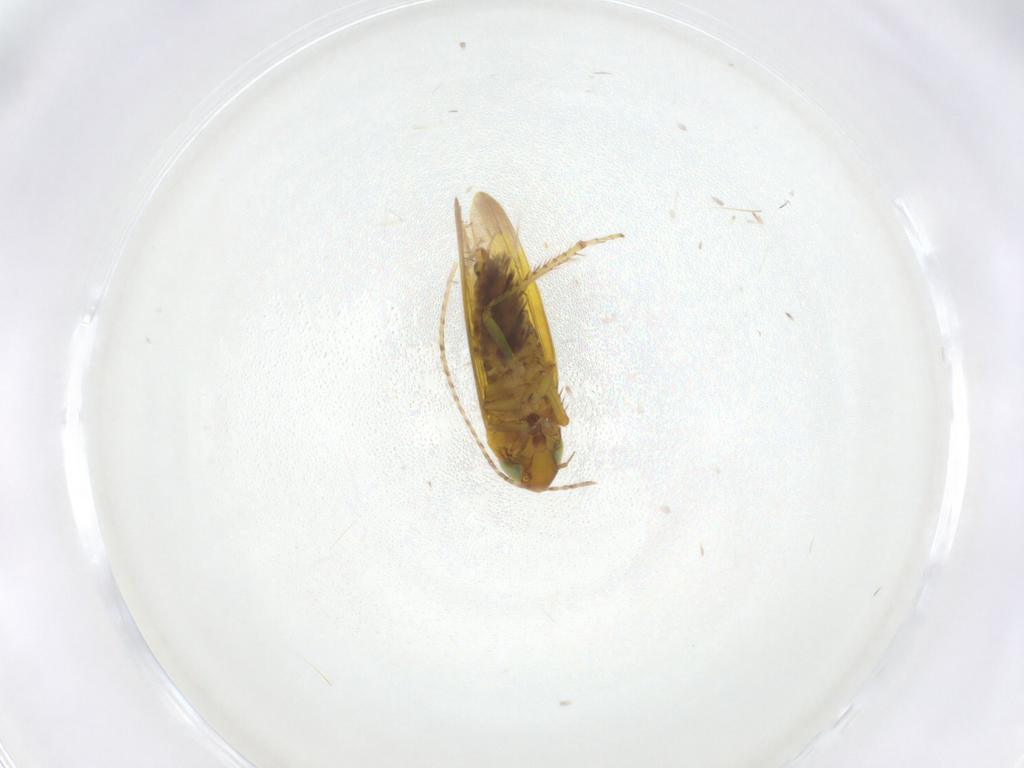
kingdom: Animalia
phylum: Arthropoda
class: Insecta
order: Hemiptera
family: Cicadellidae
